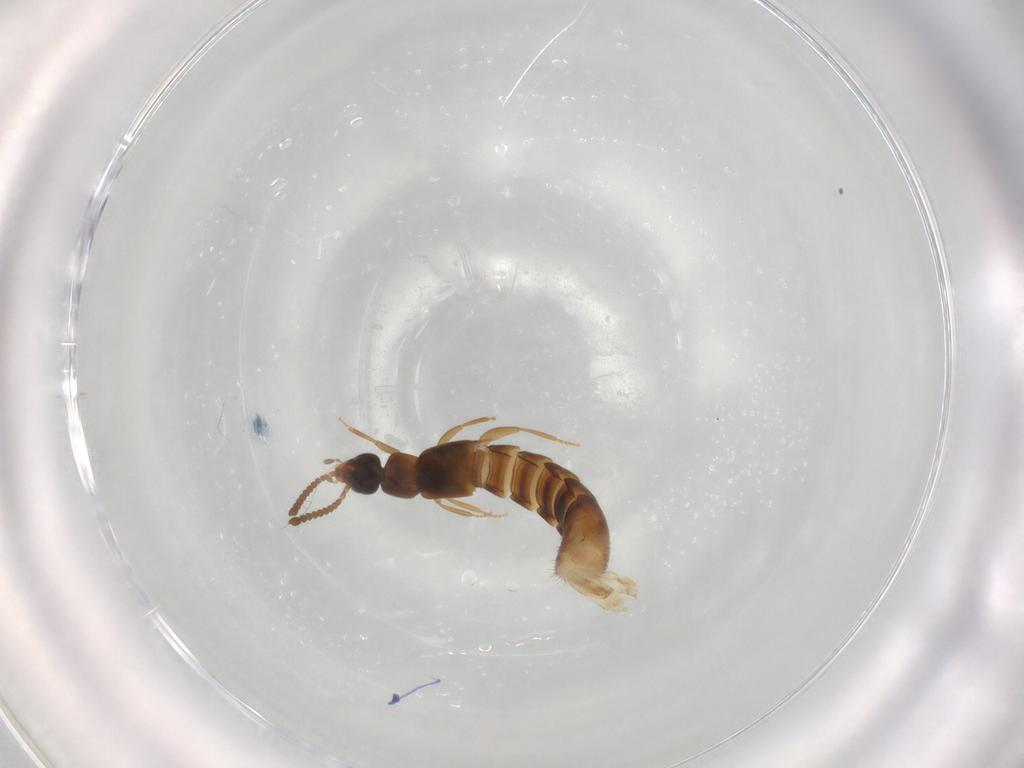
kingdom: Animalia
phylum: Arthropoda
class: Insecta
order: Coleoptera
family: Staphylinidae
